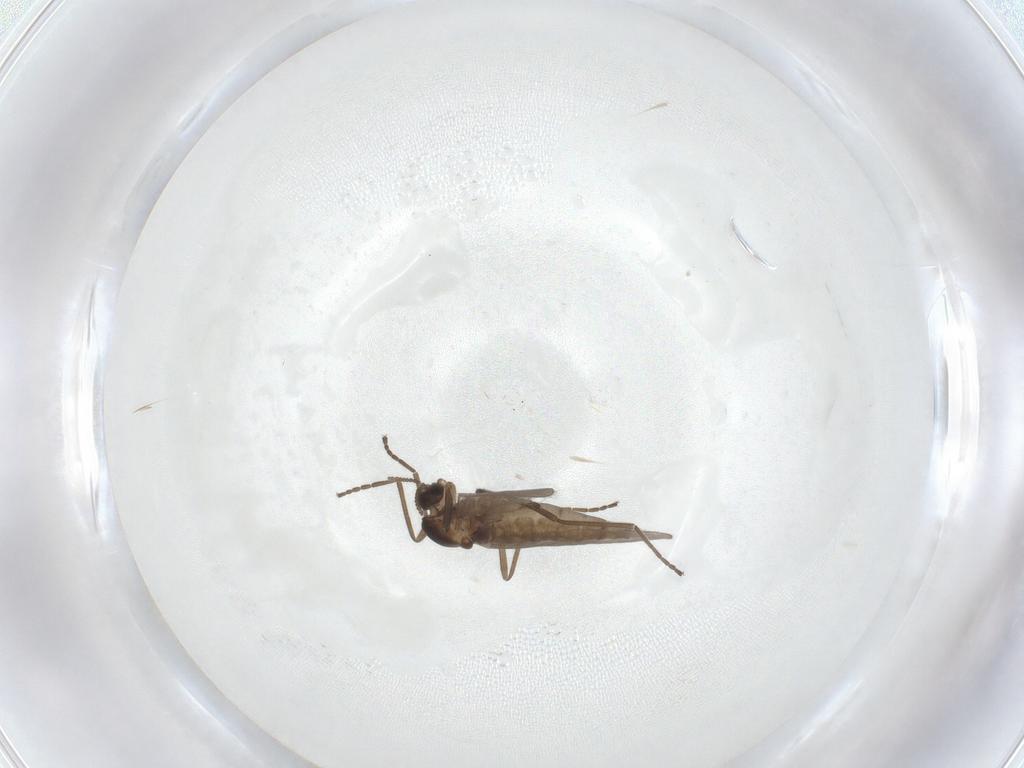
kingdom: Animalia
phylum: Arthropoda
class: Insecta
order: Diptera
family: Cecidomyiidae
